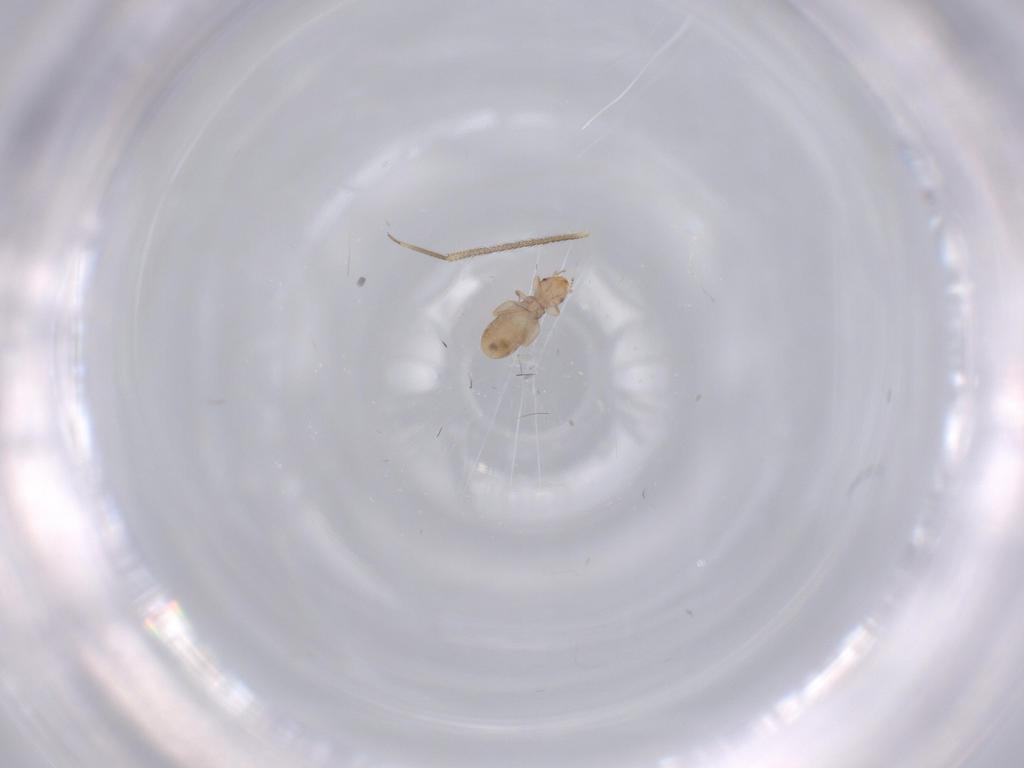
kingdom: Animalia
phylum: Arthropoda
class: Insecta
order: Psocodea
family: Liposcelididae
